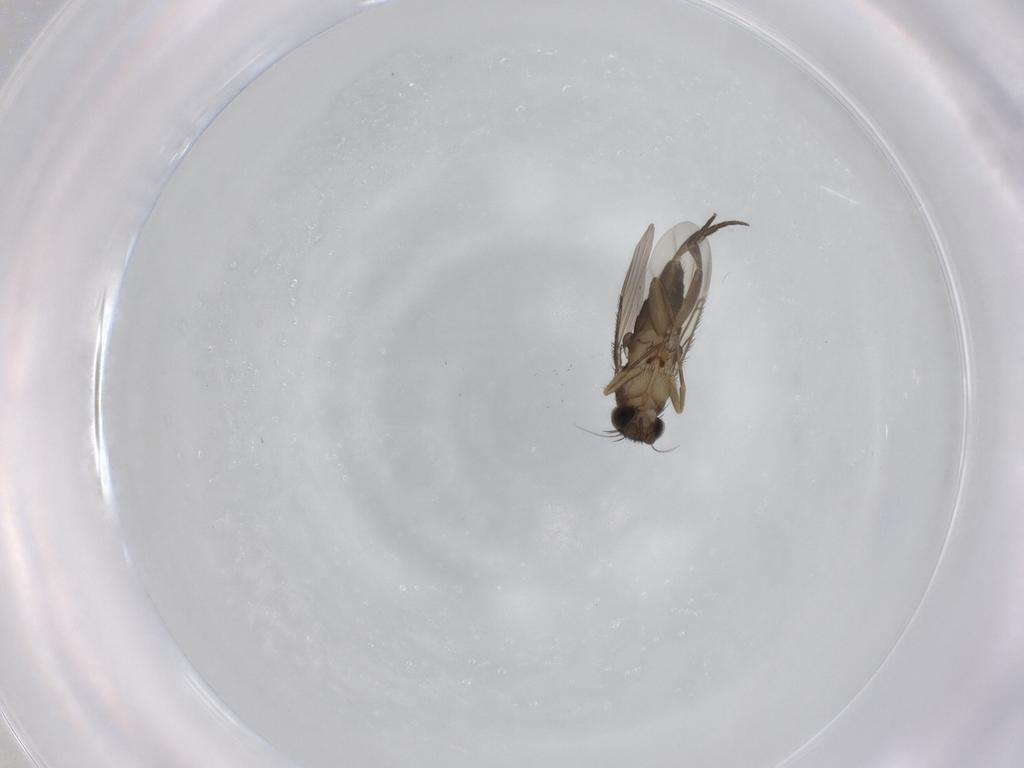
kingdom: Animalia
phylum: Arthropoda
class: Insecta
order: Diptera
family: Phoridae
